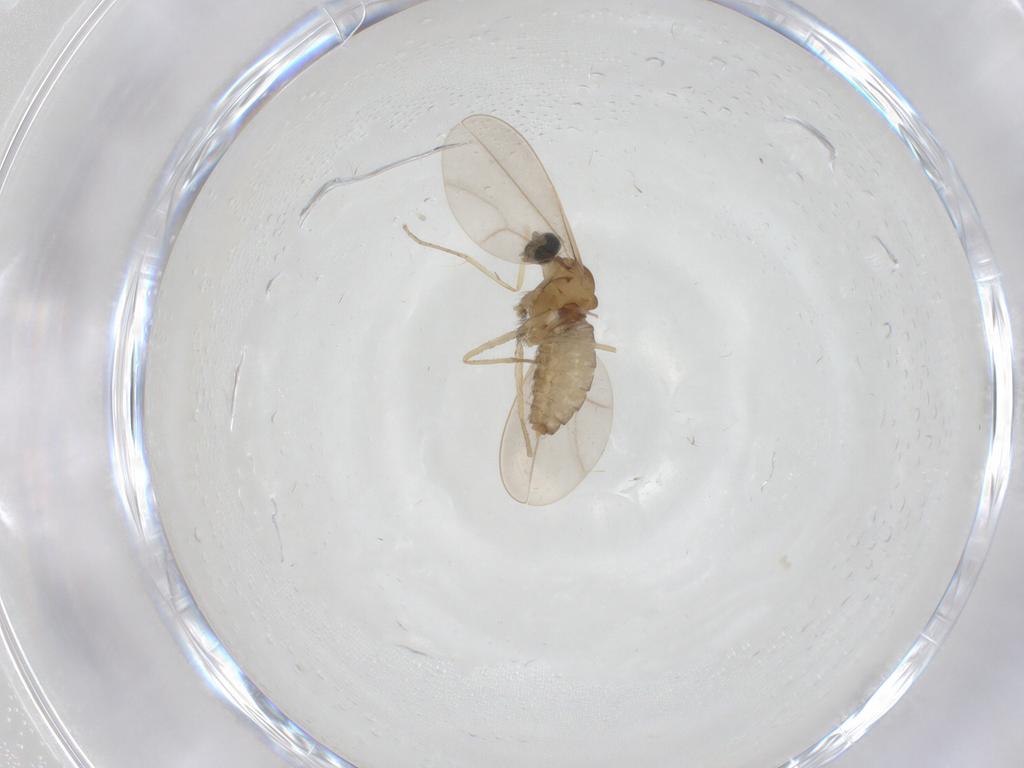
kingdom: Animalia
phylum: Arthropoda
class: Insecta
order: Diptera
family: Cecidomyiidae
